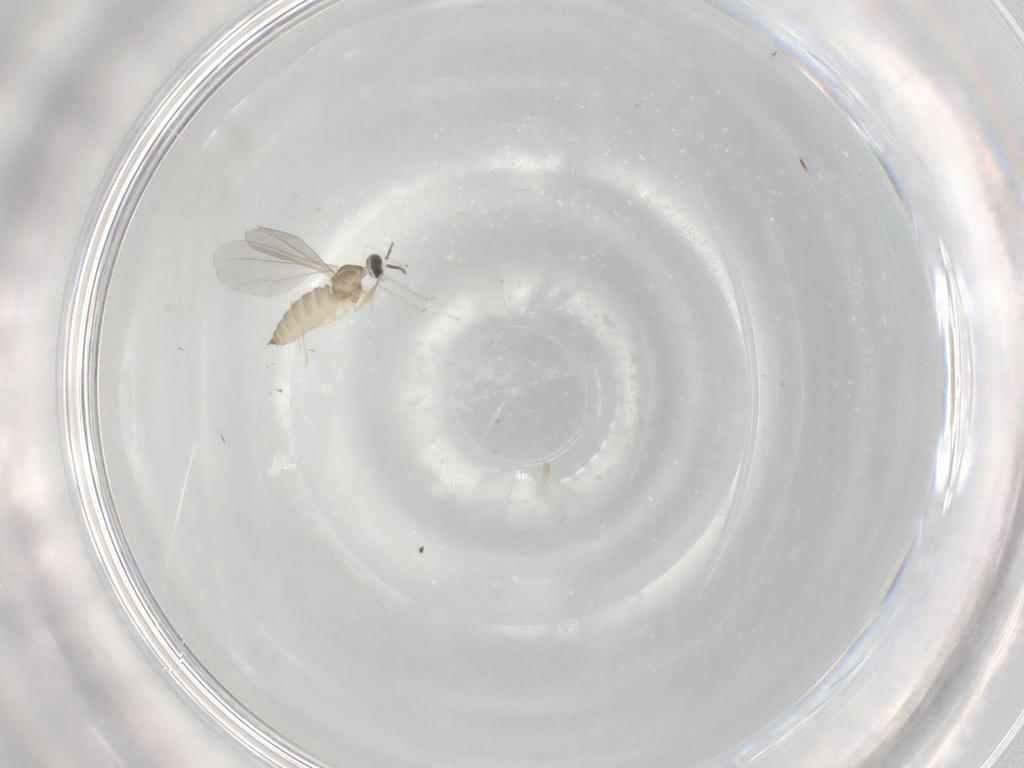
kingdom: Animalia
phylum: Arthropoda
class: Insecta
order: Diptera
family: Cecidomyiidae
